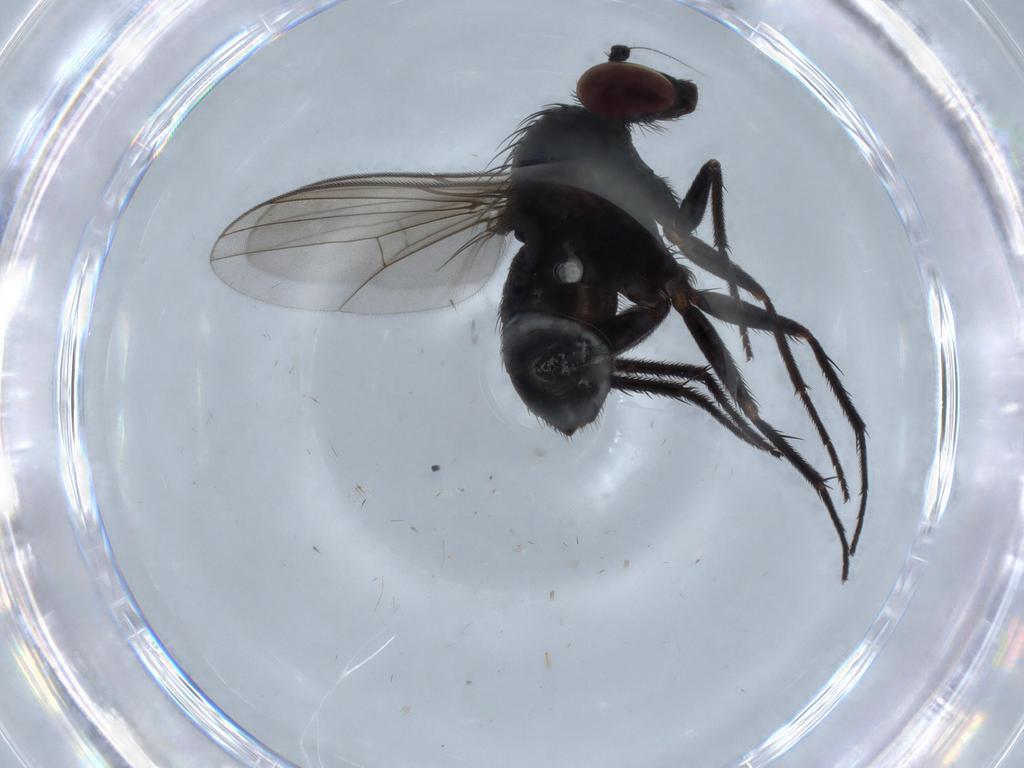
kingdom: Animalia
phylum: Arthropoda
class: Insecta
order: Diptera
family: Dolichopodidae
